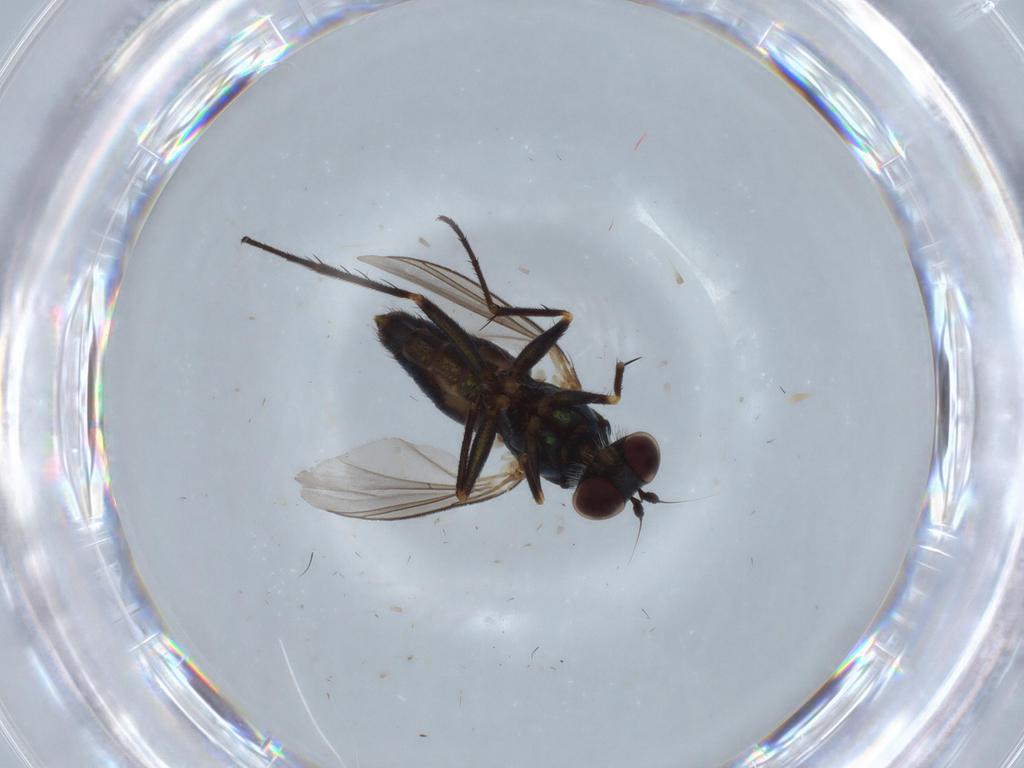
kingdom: Animalia
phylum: Arthropoda
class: Insecta
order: Diptera
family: Dolichopodidae
